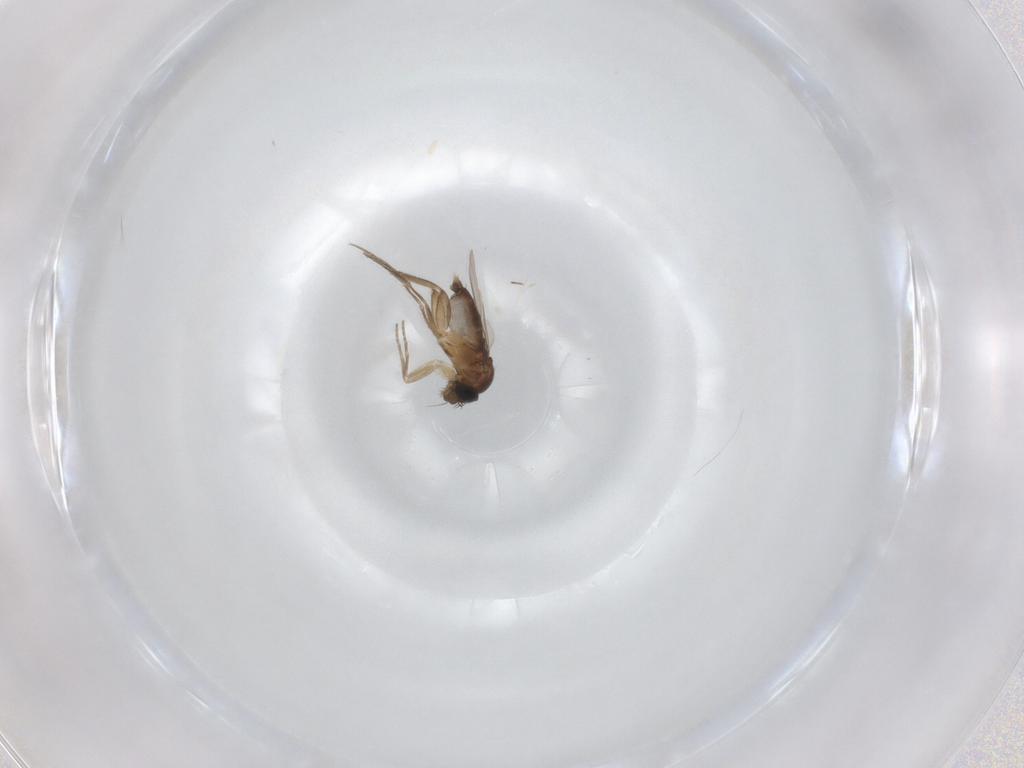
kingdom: Animalia
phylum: Arthropoda
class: Insecta
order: Diptera
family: Phoridae
